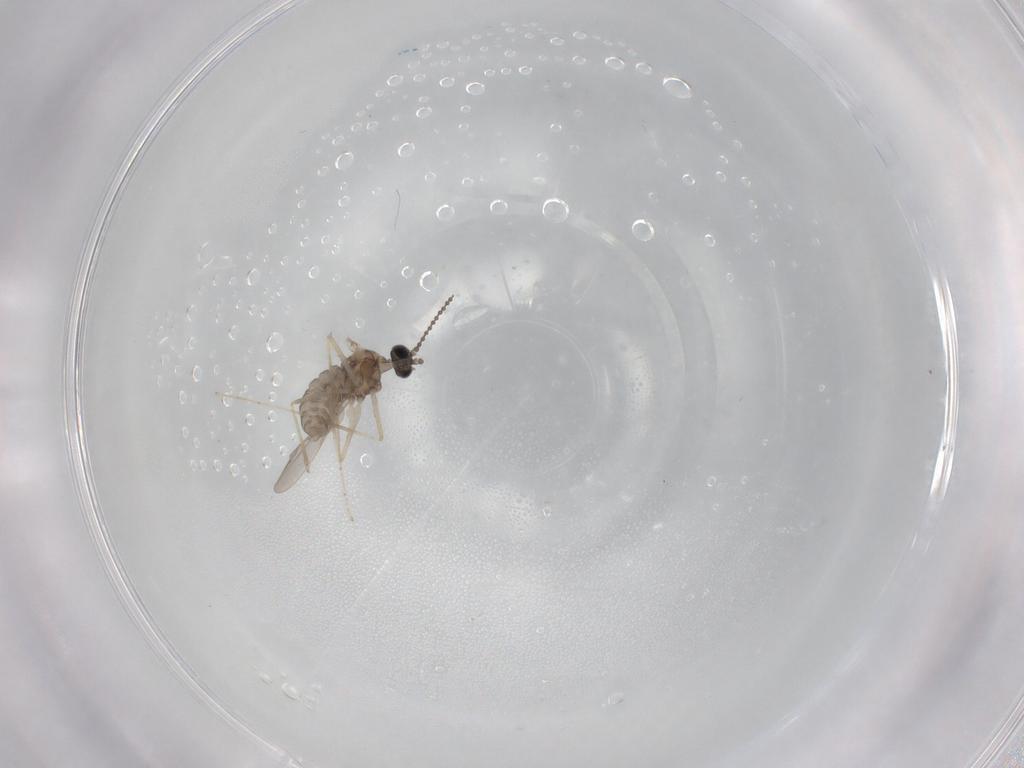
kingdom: Animalia
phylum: Arthropoda
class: Insecta
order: Diptera
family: Cecidomyiidae
